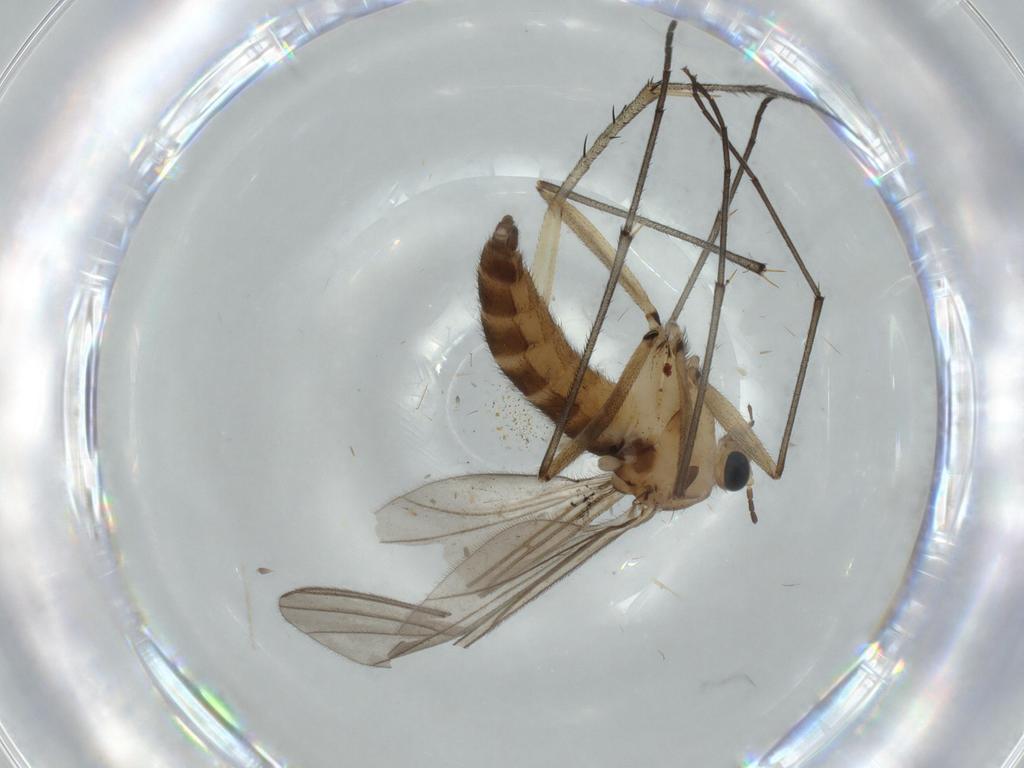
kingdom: Animalia
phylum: Arthropoda
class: Insecta
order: Diptera
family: Sciaridae
